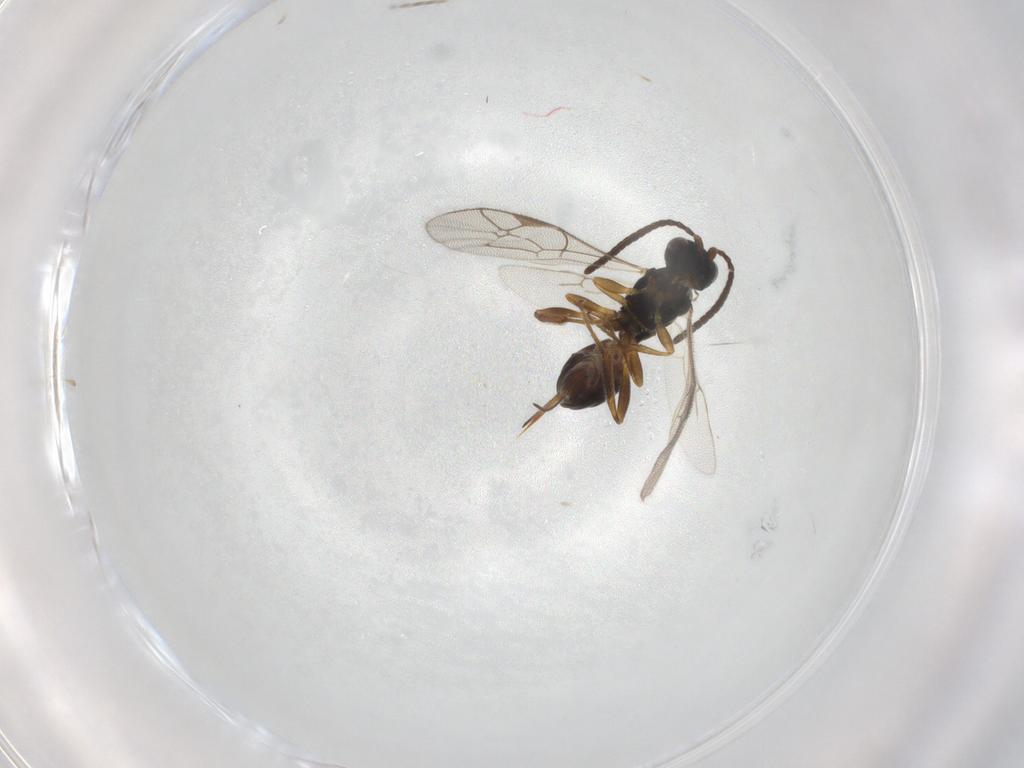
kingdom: Animalia
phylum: Arthropoda
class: Insecta
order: Hymenoptera
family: Ichneumonidae
